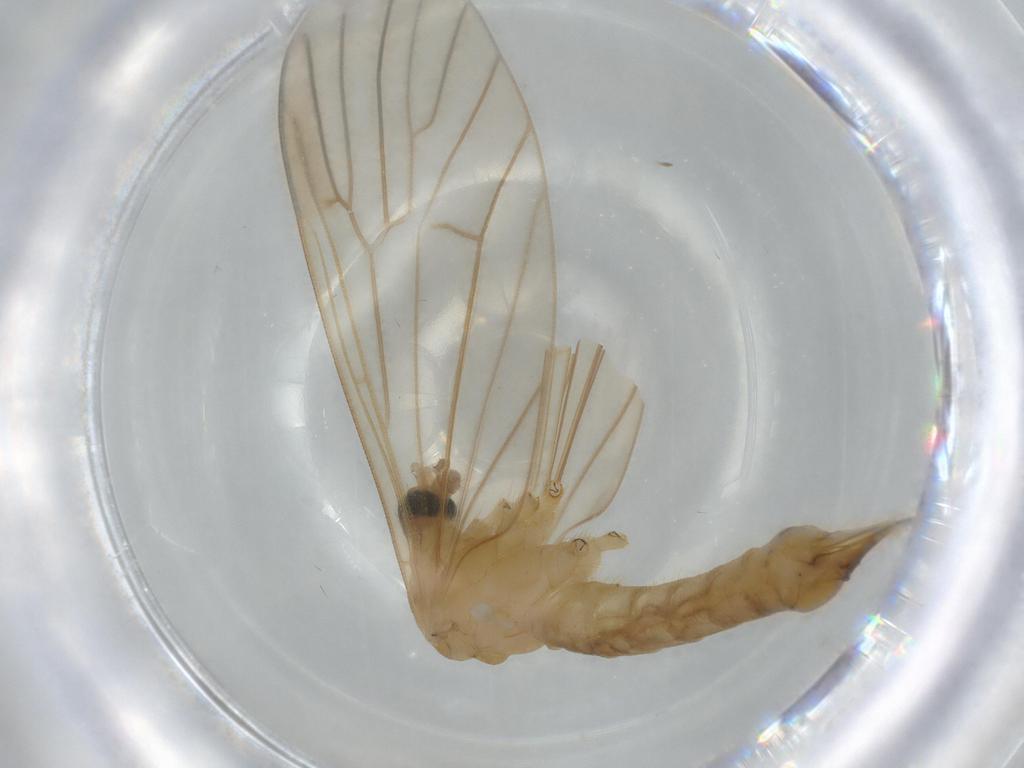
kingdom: Animalia
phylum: Arthropoda
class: Insecta
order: Diptera
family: Limoniidae
